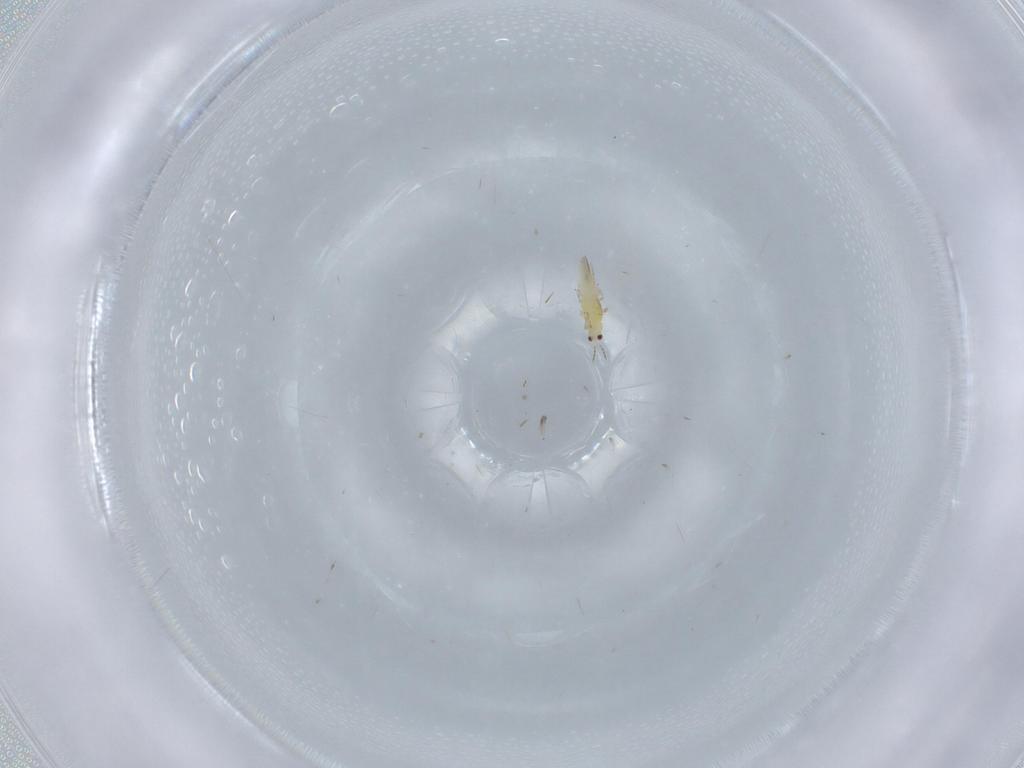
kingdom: Animalia
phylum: Arthropoda
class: Insecta
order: Thysanoptera
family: Thripidae
